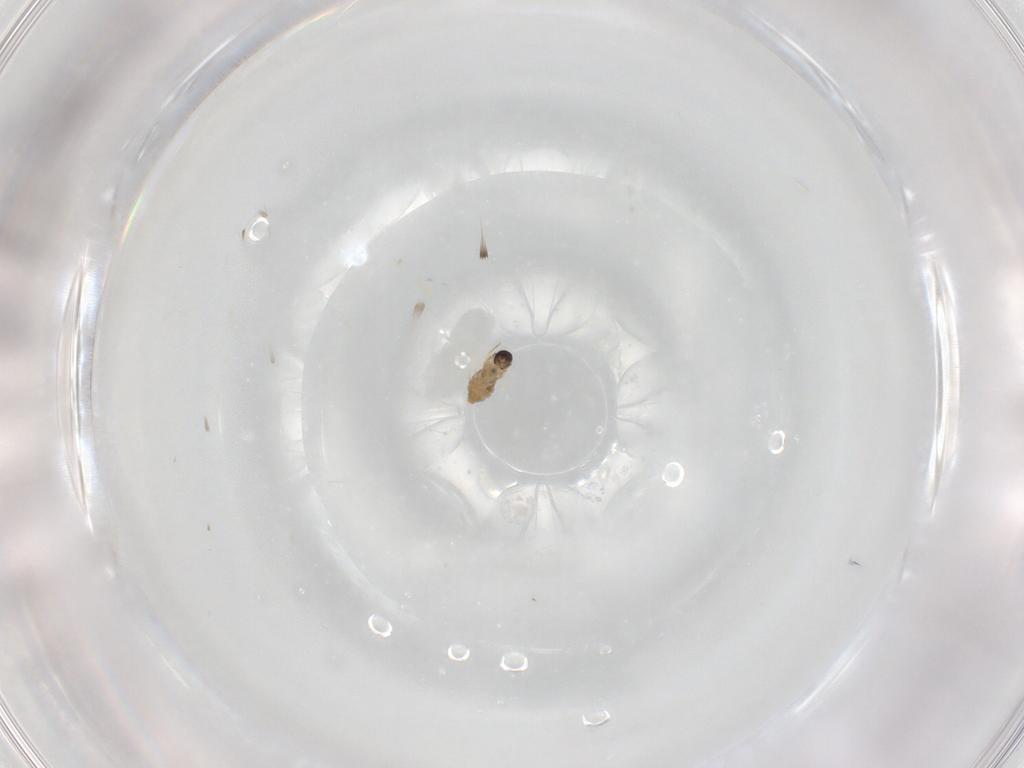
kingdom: Animalia
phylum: Arthropoda
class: Insecta
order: Diptera
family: Cecidomyiidae
